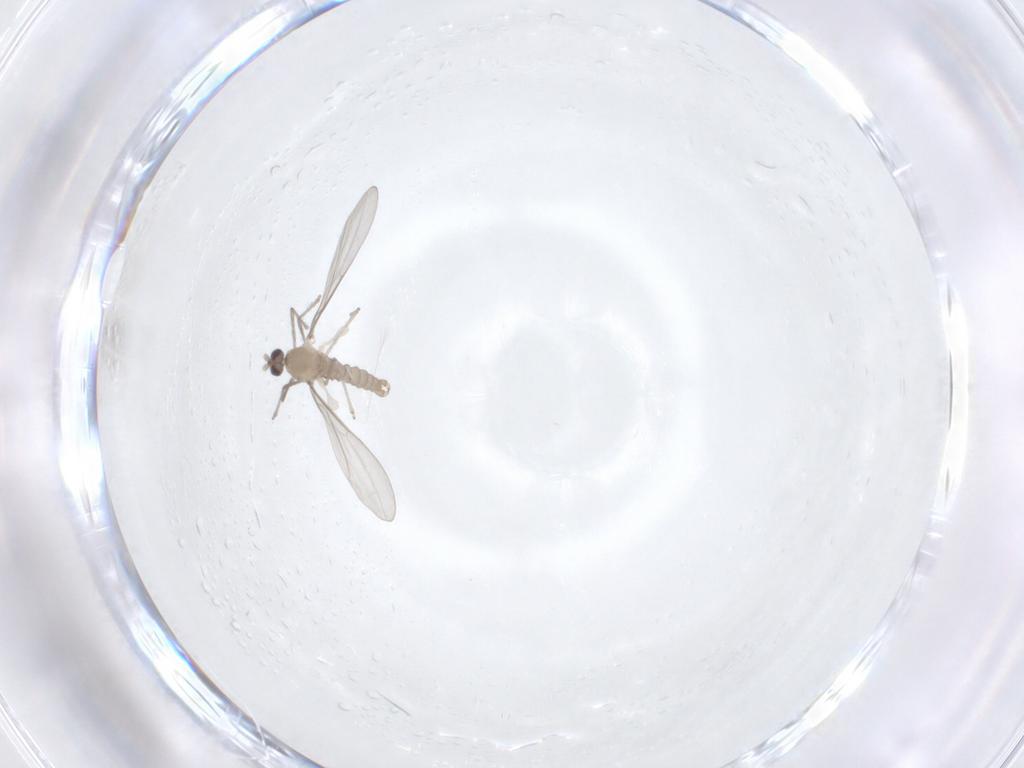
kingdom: Animalia
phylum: Arthropoda
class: Insecta
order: Diptera
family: Cecidomyiidae
